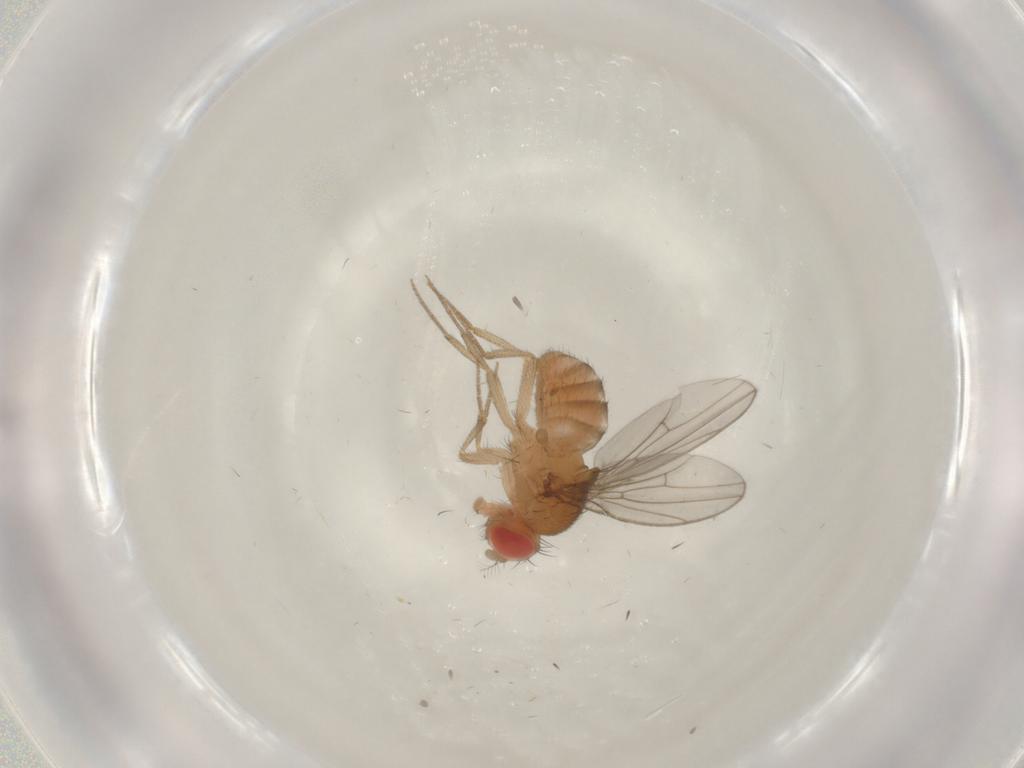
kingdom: Animalia
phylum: Arthropoda
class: Insecta
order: Diptera
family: Drosophilidae
